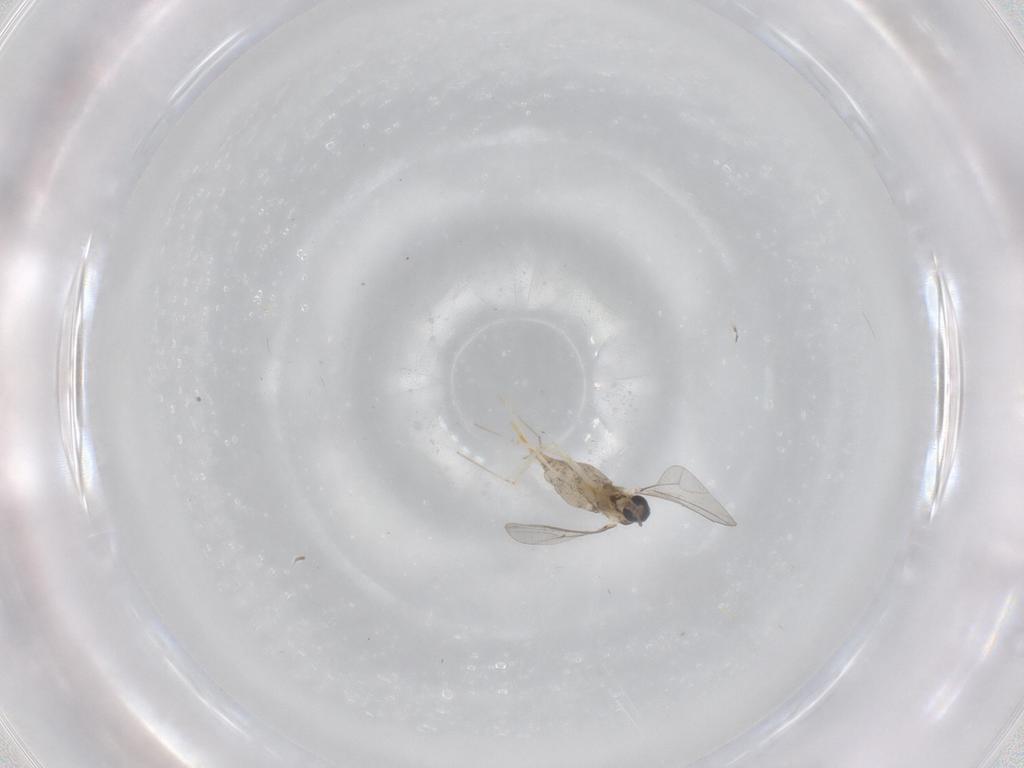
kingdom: Animalia
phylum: Arthropoda
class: Insecta
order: Diptera
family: Cecidomyiidae
